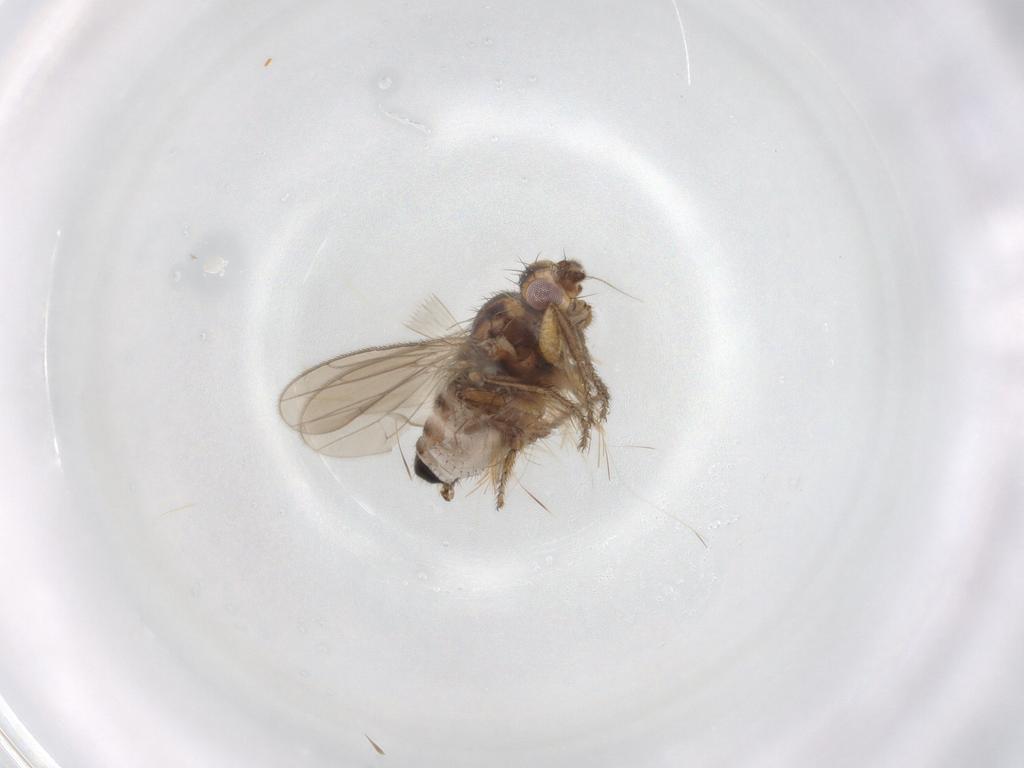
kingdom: Animalia
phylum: Arthropoda
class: Insecta
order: Diptera
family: Sphaeroceridae
